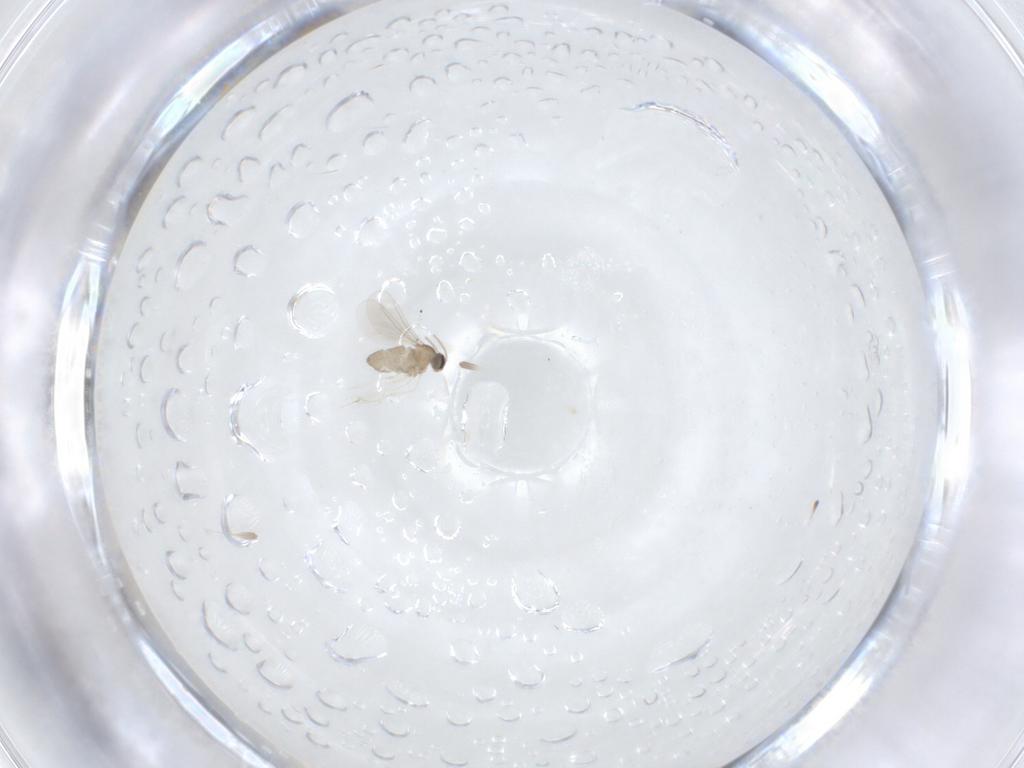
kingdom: Animalia
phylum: Arthropoda
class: Insecta
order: Diptera
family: Cecidomyiidae
